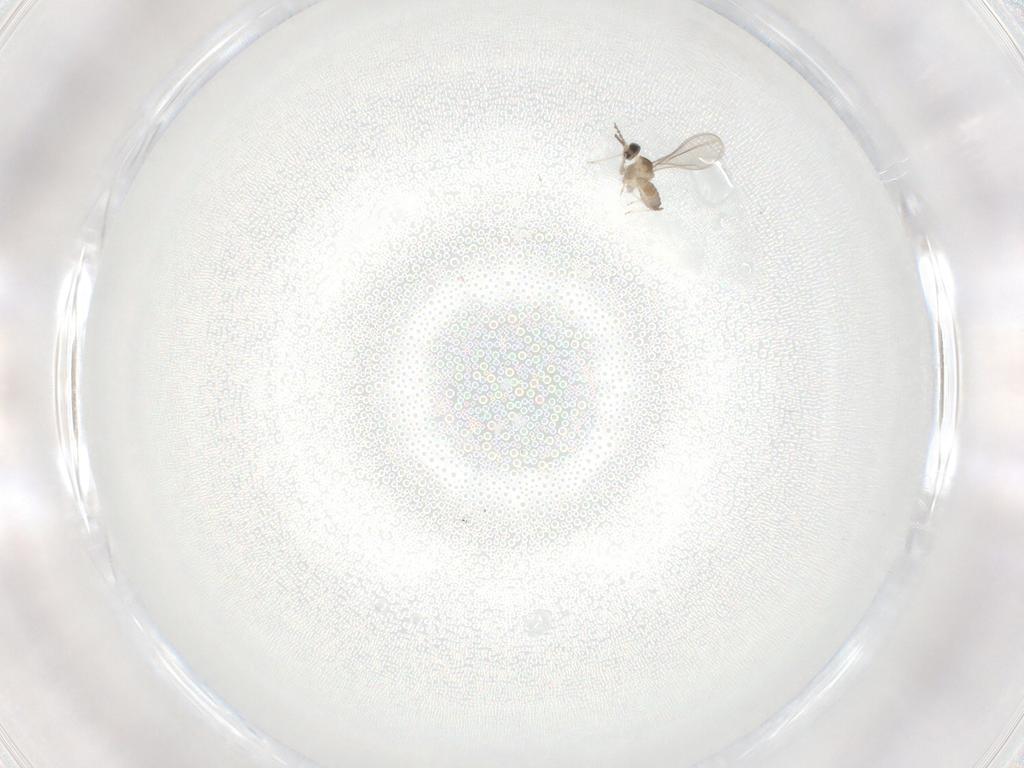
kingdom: Animalia
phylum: Arthropoda
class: Insecta
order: Diptera
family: Cecidomyiidae
